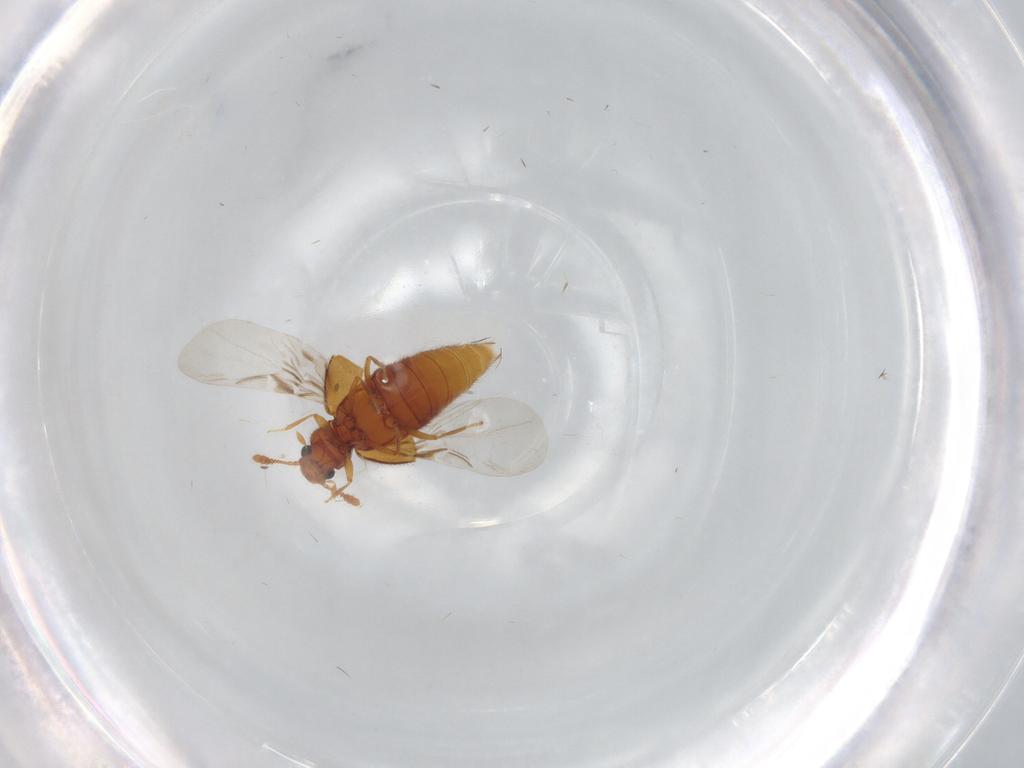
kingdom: Animalia
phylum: Arthropoda
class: Insecta
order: Coleoptera
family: Staphylinidae
